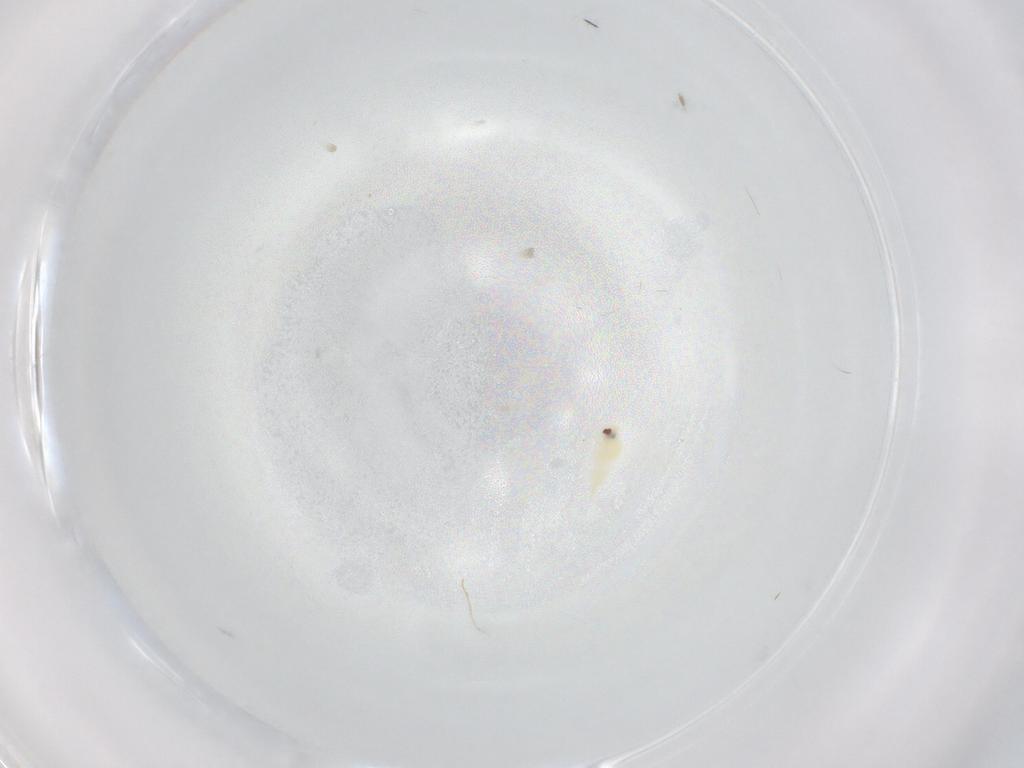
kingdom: Animalia
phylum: Arthropoda
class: Insecta
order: Hemiptera
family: Aleyrodidae
